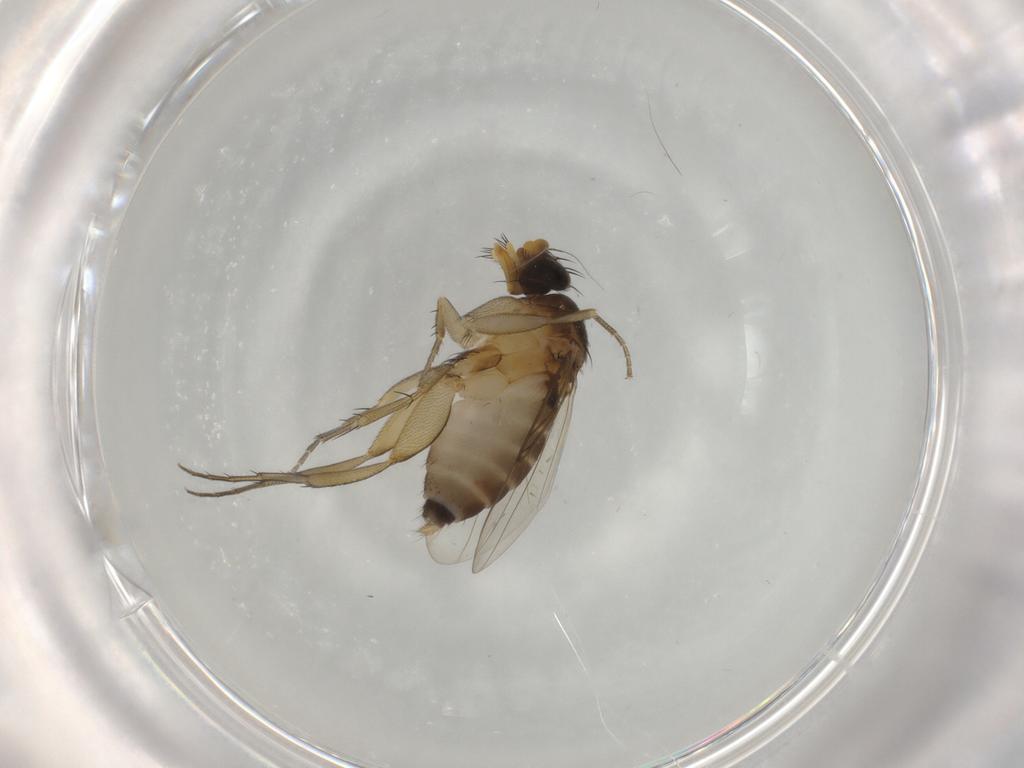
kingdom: Animalia
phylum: Arthropoda
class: Insecta
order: Diptera
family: Phoridae
